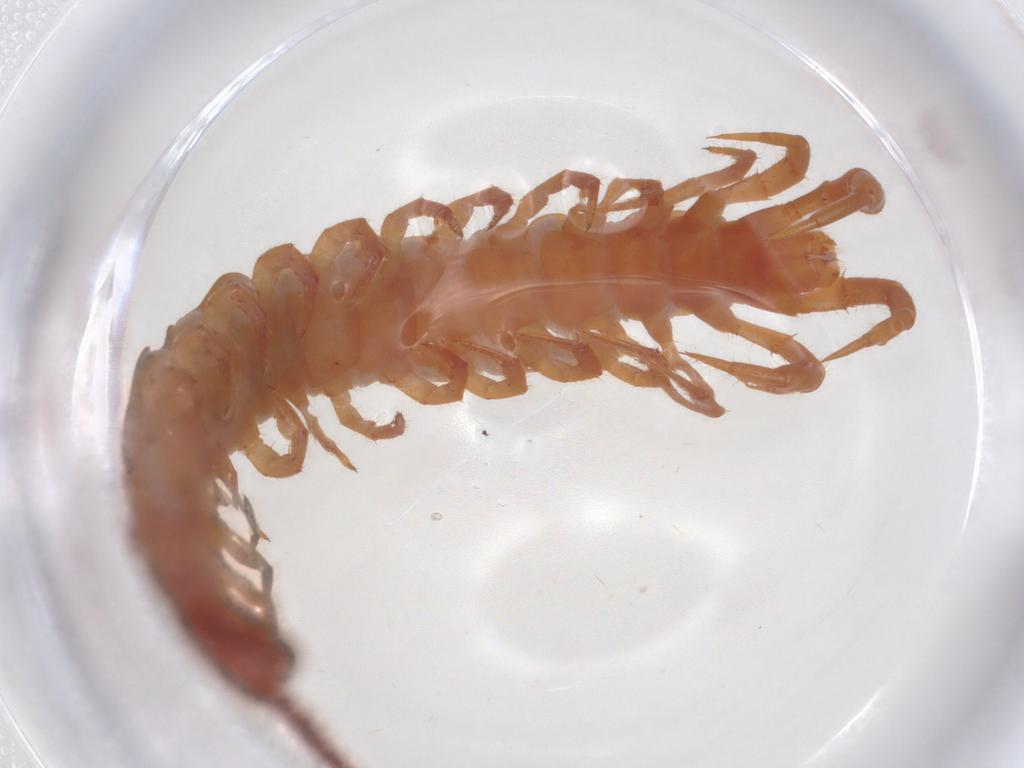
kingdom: Animalia
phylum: Arthropoda
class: Chilopoda
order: Lithobiomorpha
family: Lithobiidae
